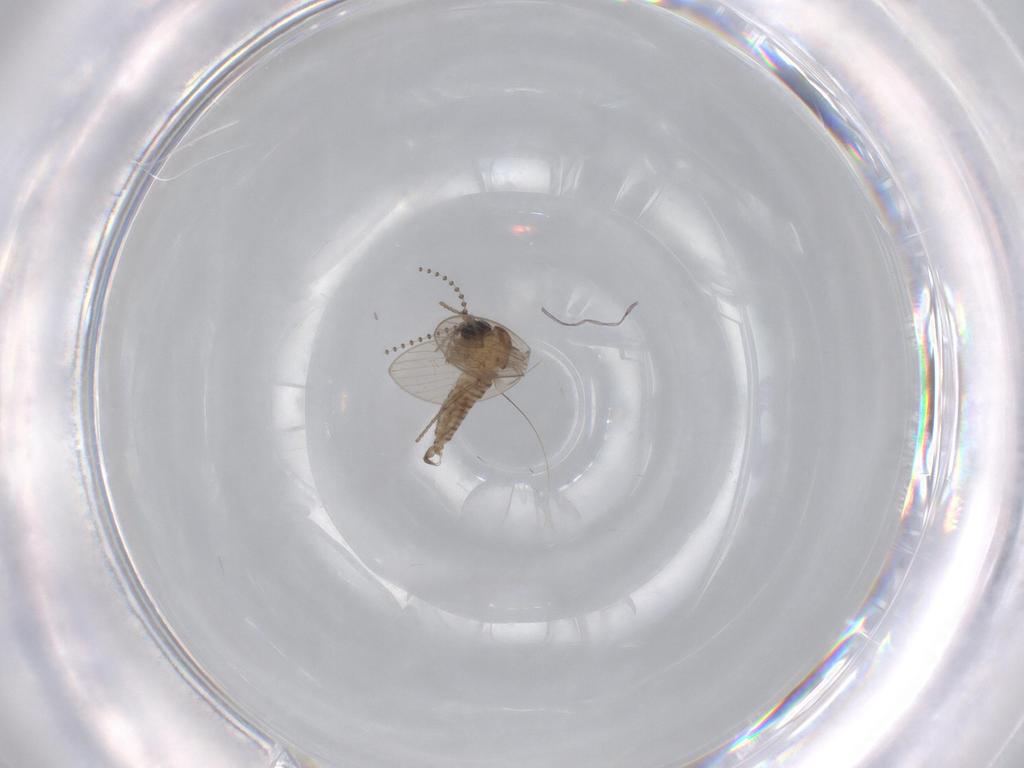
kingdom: Animalia
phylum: Arthropoda
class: Insecta
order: Diptera
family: Psychodidae
